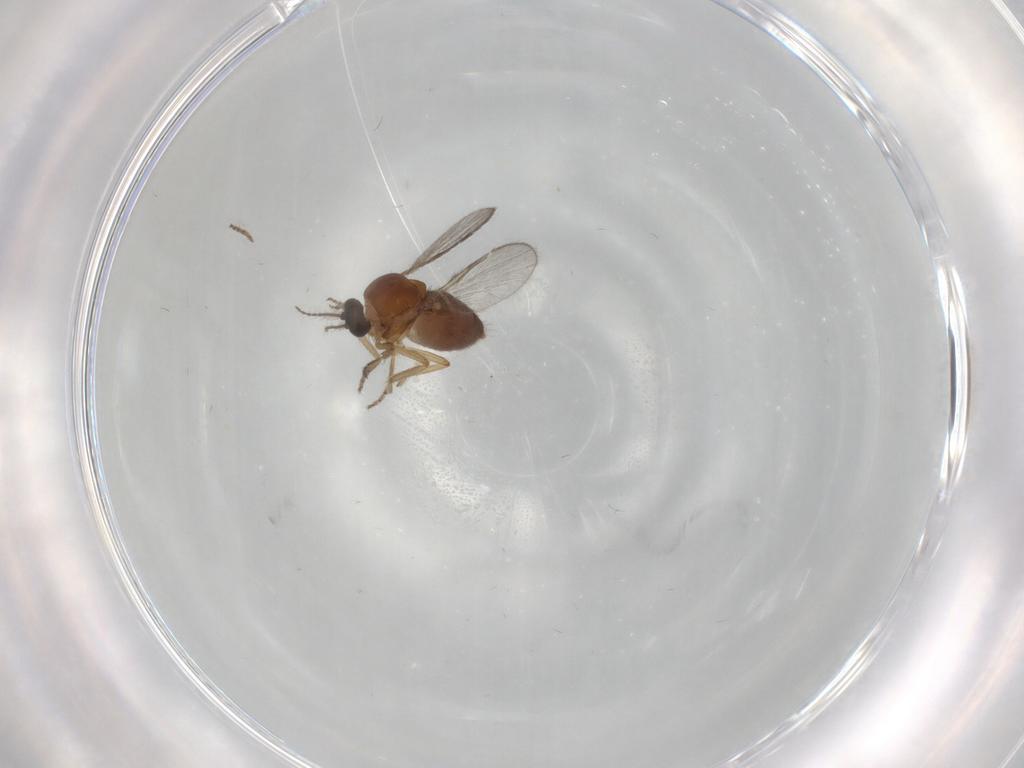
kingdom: Animalia
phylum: Arthropoda
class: Insecta
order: Diptera
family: Ceratopogonidae
